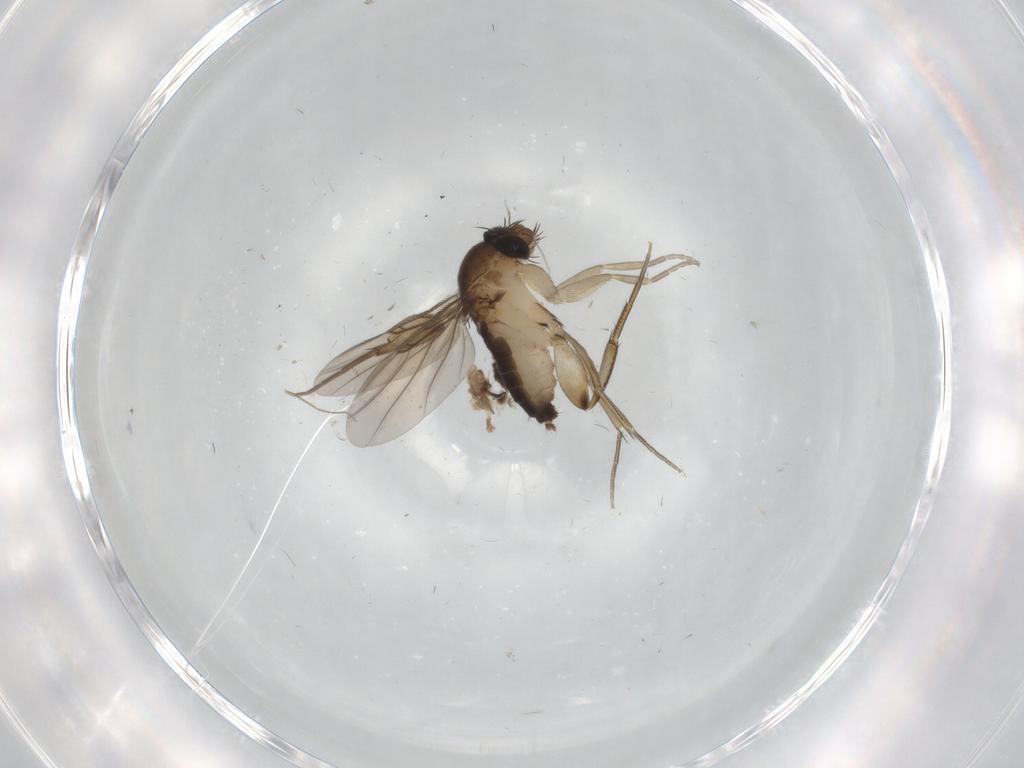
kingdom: Animalia
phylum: Arthropoda
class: Insecta
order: Diptera
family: Phoridae
